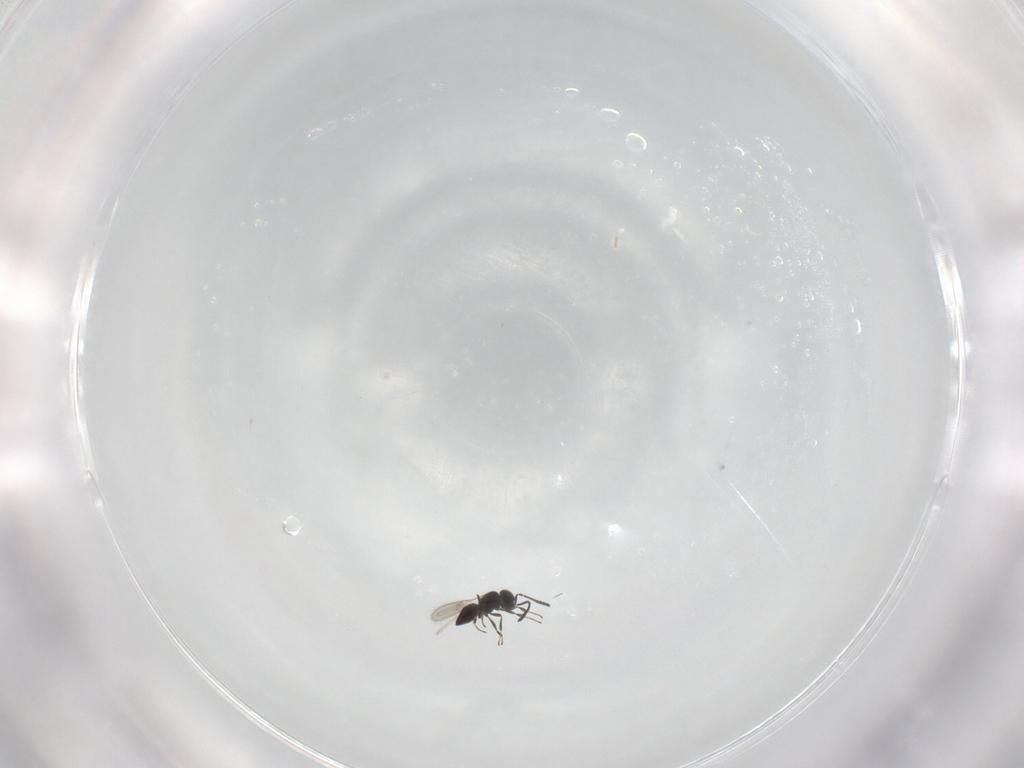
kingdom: Animalia
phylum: Arthropoda
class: Insecta
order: Hymenoptera
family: Scelionidae
